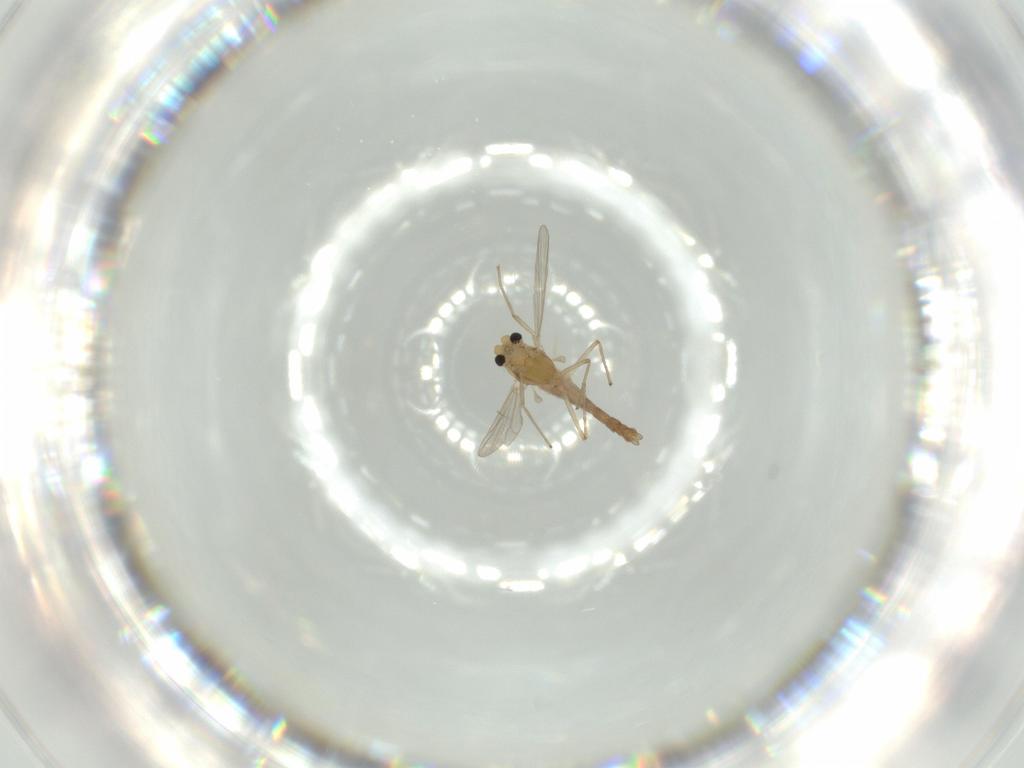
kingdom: Animalia
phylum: Arthropoda
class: Insecta
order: Diptera
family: Chironomidae
